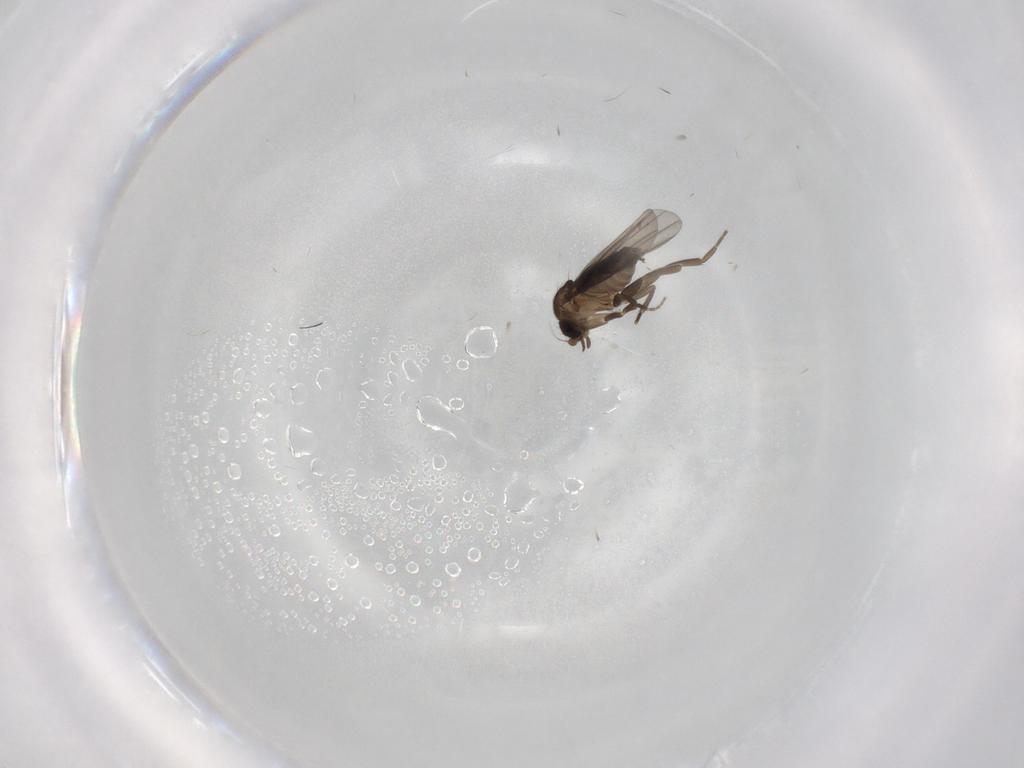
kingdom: Animalia
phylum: Arthropoda
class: Insecta
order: Diptera
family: Phoridae
